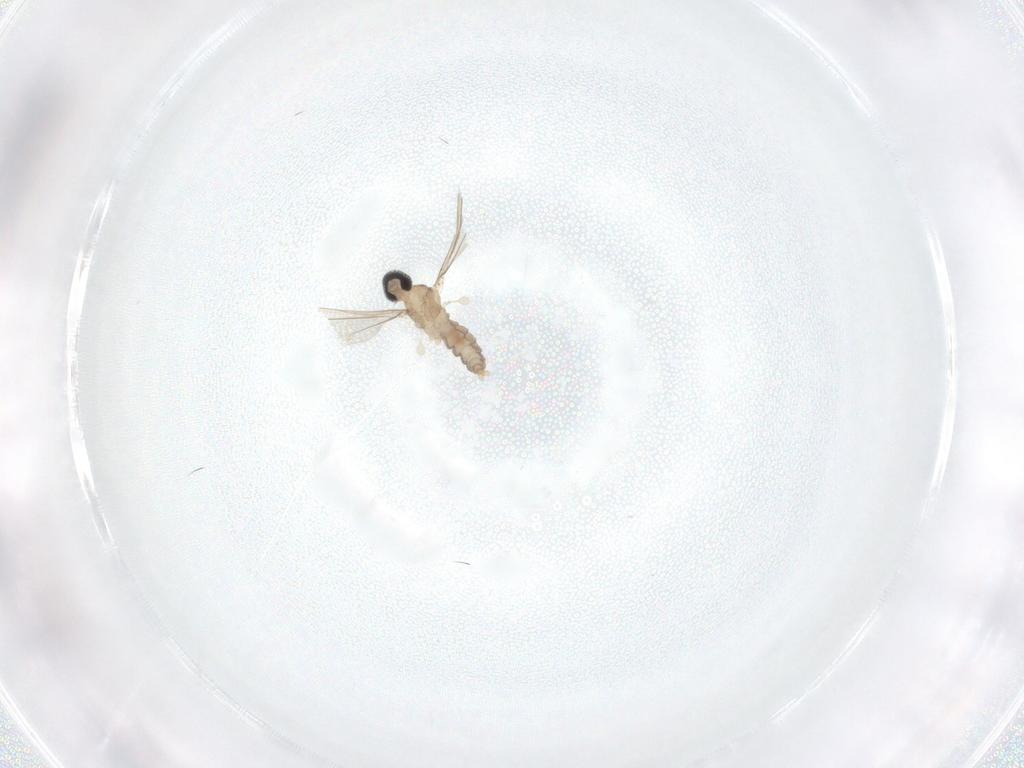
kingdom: Animalia
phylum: Arthropoda
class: Insecta
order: Diptera
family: Cecidomyiidae
